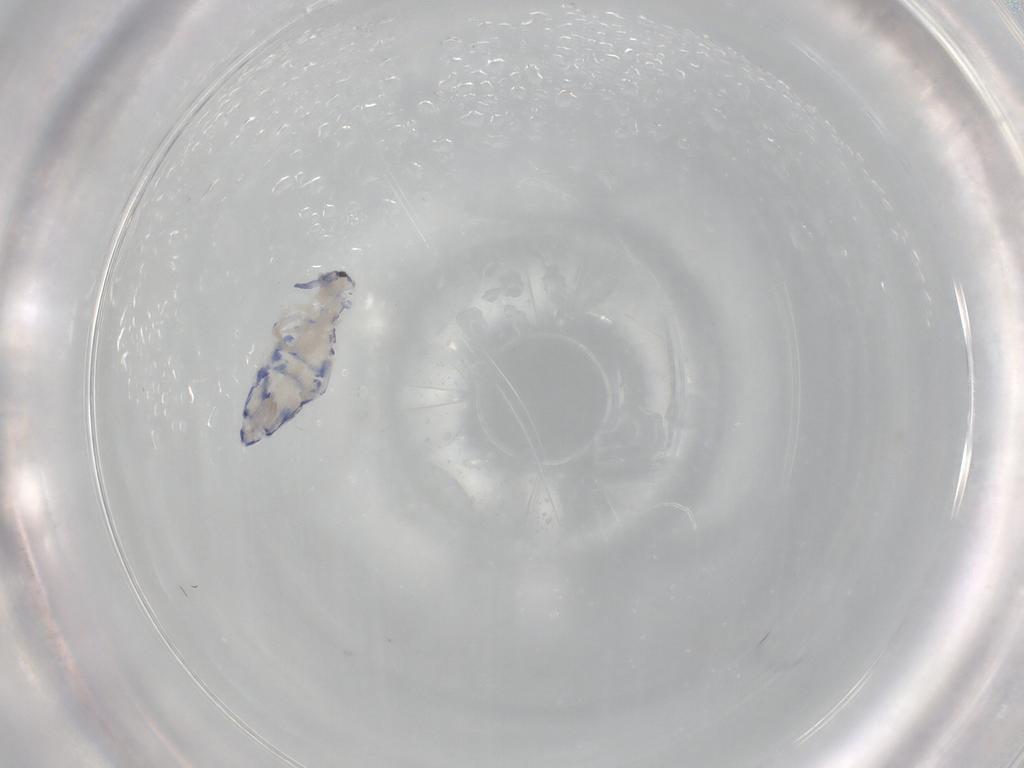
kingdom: Animalia
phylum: Arthropoda
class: Collembola
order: Entomobryomorpha
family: Entomobryidae
